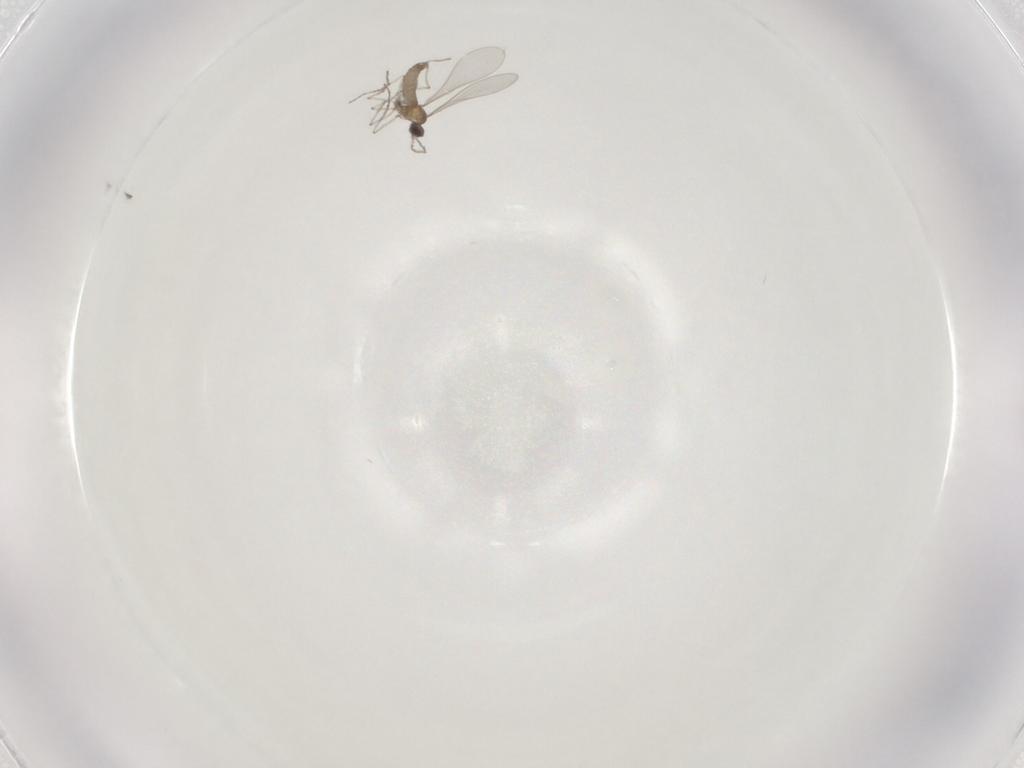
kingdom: Animalia
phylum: Arthropoda
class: Insecta
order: Diptera
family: Cecidomyiidae
